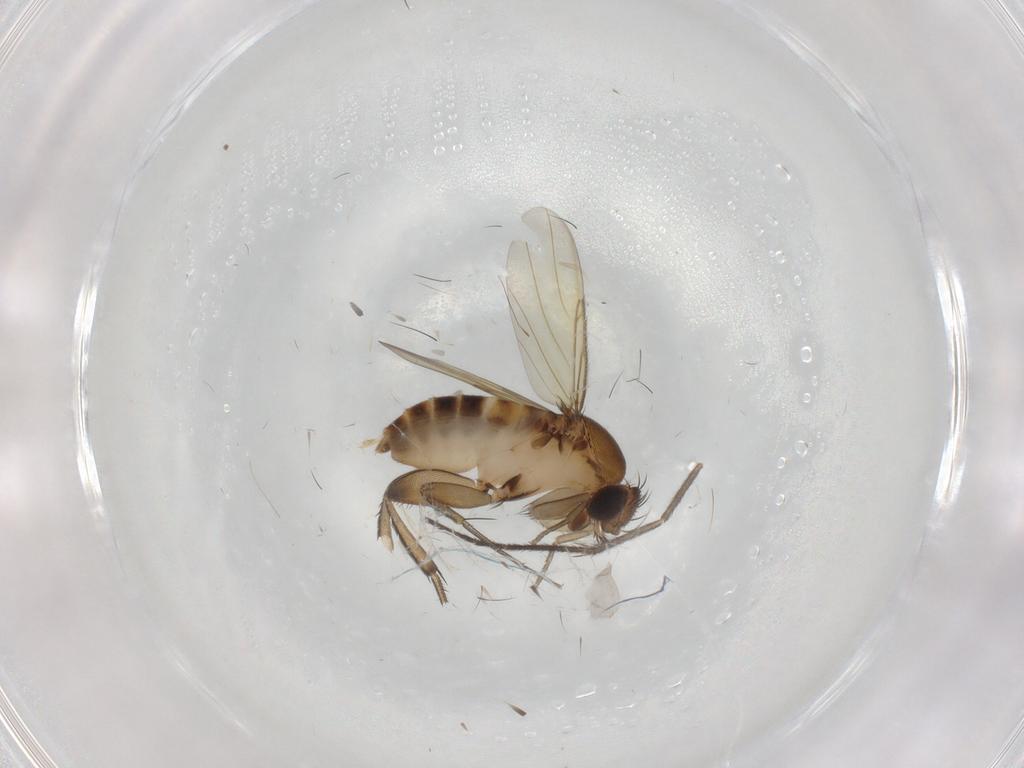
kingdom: Animalia
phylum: Arthropoda
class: Insecta
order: Diptera
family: Sciaridae
